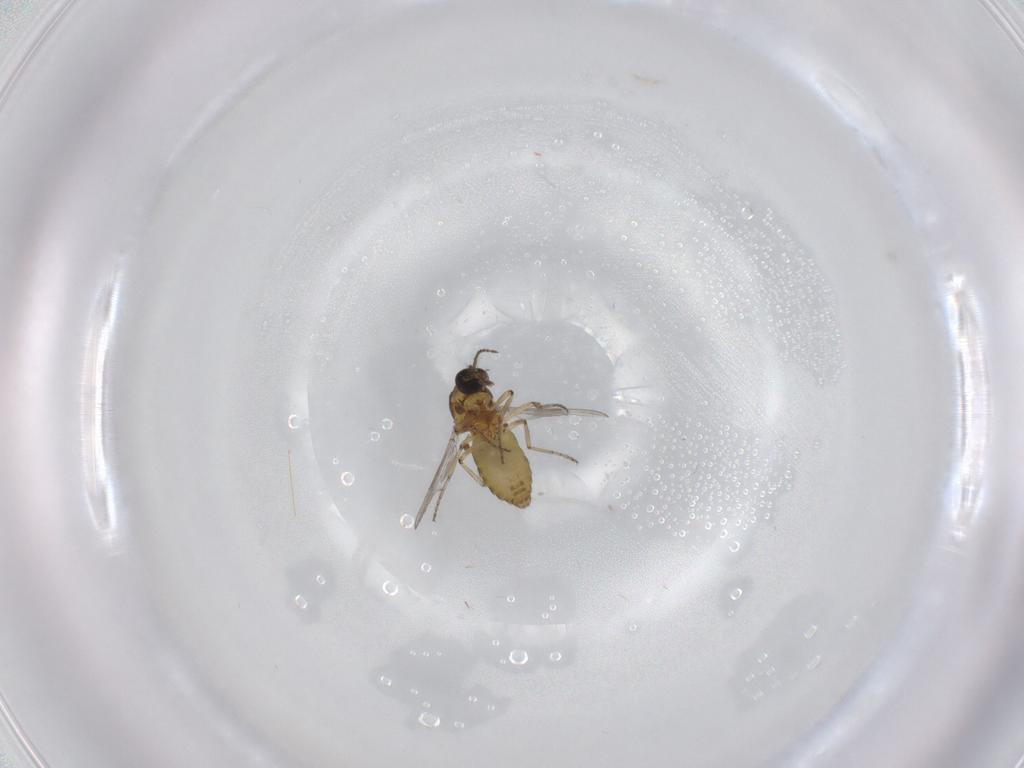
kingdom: Animalia
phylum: Arthropoda
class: Insecta
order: Diptera
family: Ceratopogonidae
